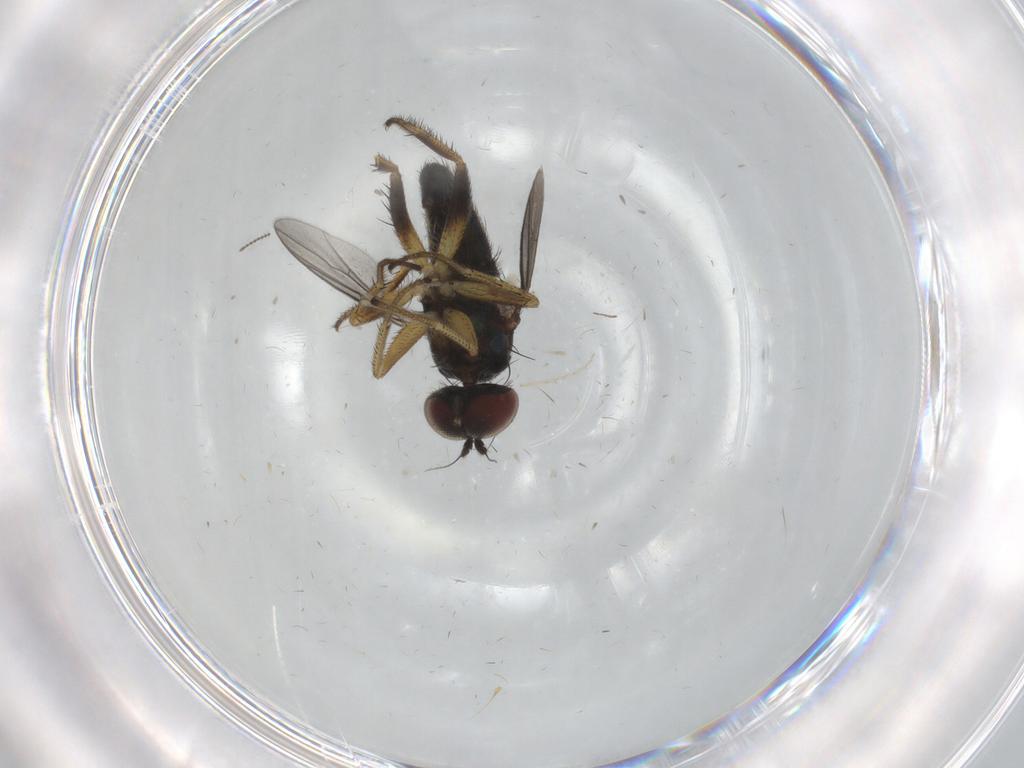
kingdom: Animalia
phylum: Arthropoda
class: Insecta
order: Diptera
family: Dolichopodidae
